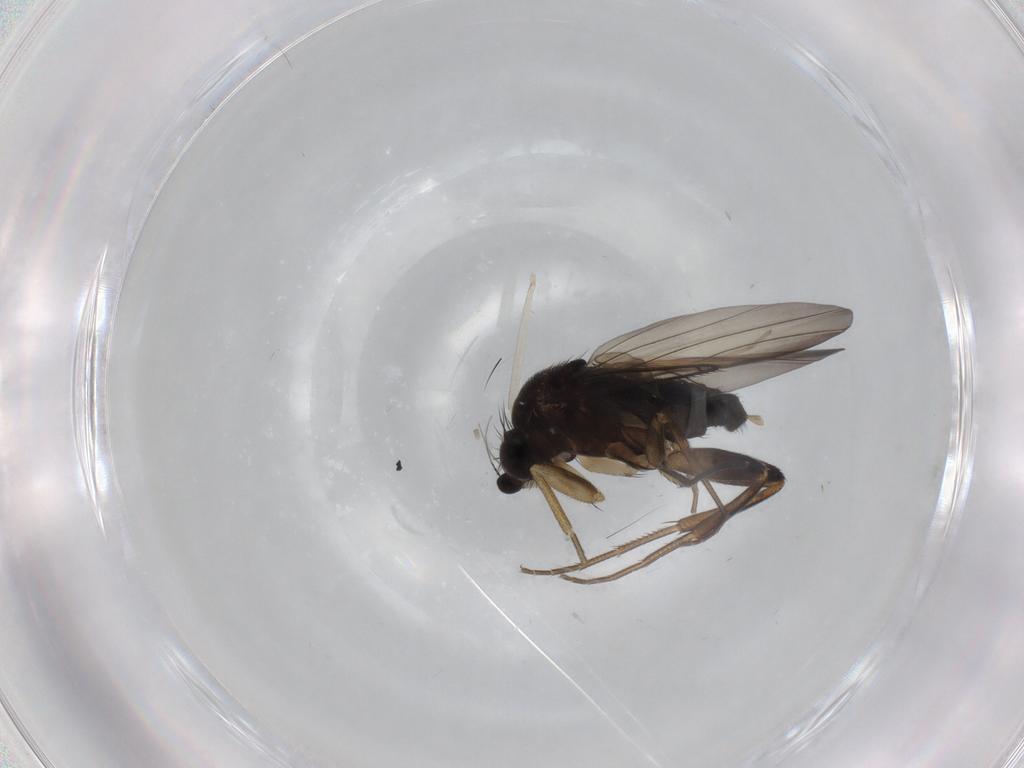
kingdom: Animalia
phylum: Arthropoda
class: Insecta
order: Diptera
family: Phoridae
